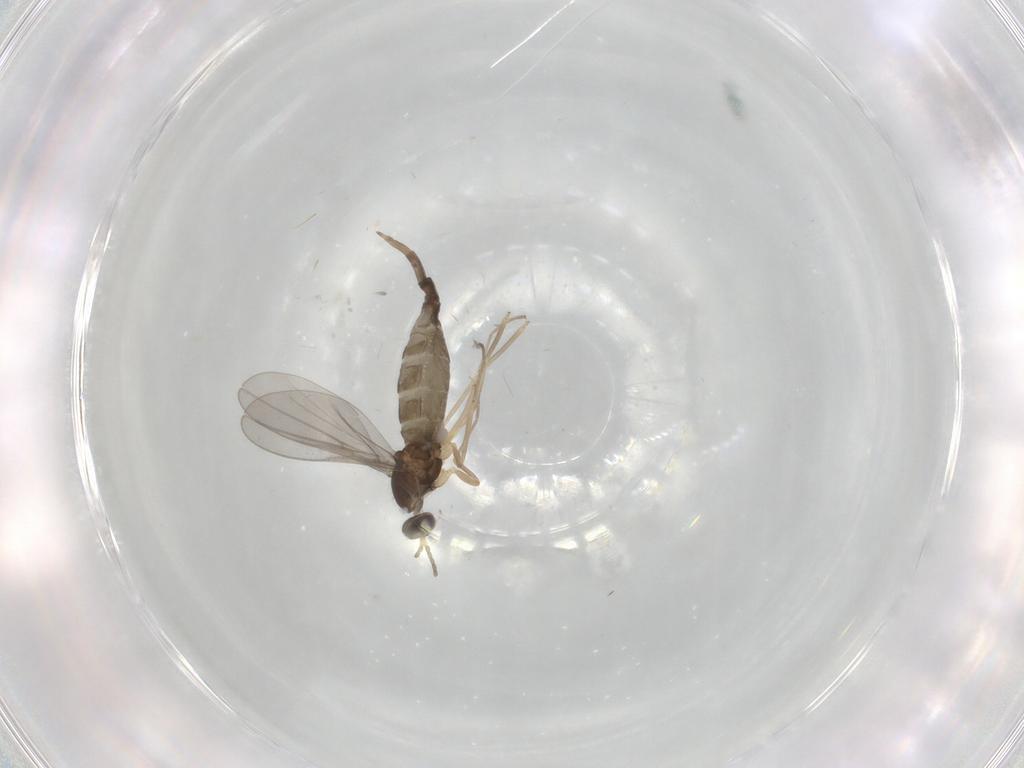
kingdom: Animalia
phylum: Arthropoda
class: Insecta
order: Diptera
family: Cecidomyiidae
